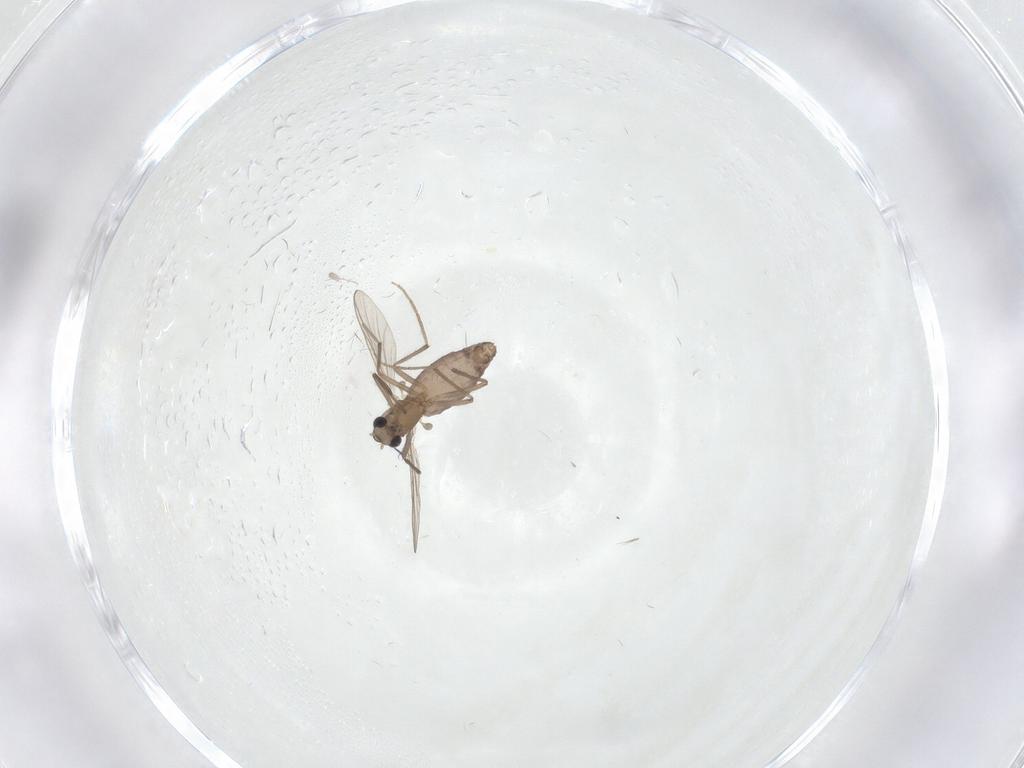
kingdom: Animalia
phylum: Arthropoda
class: Insecta
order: Diptera
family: Chironomidae
